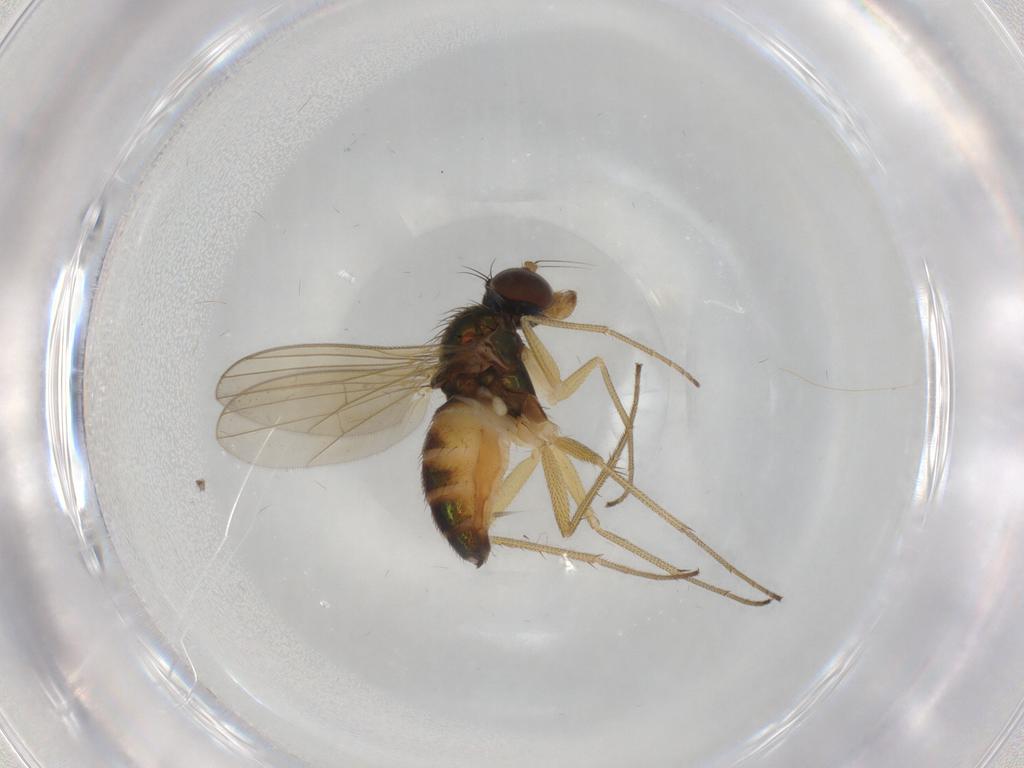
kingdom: Animalia
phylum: Arthropoda
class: Insecta
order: Diptera
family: Dolichopodidae
